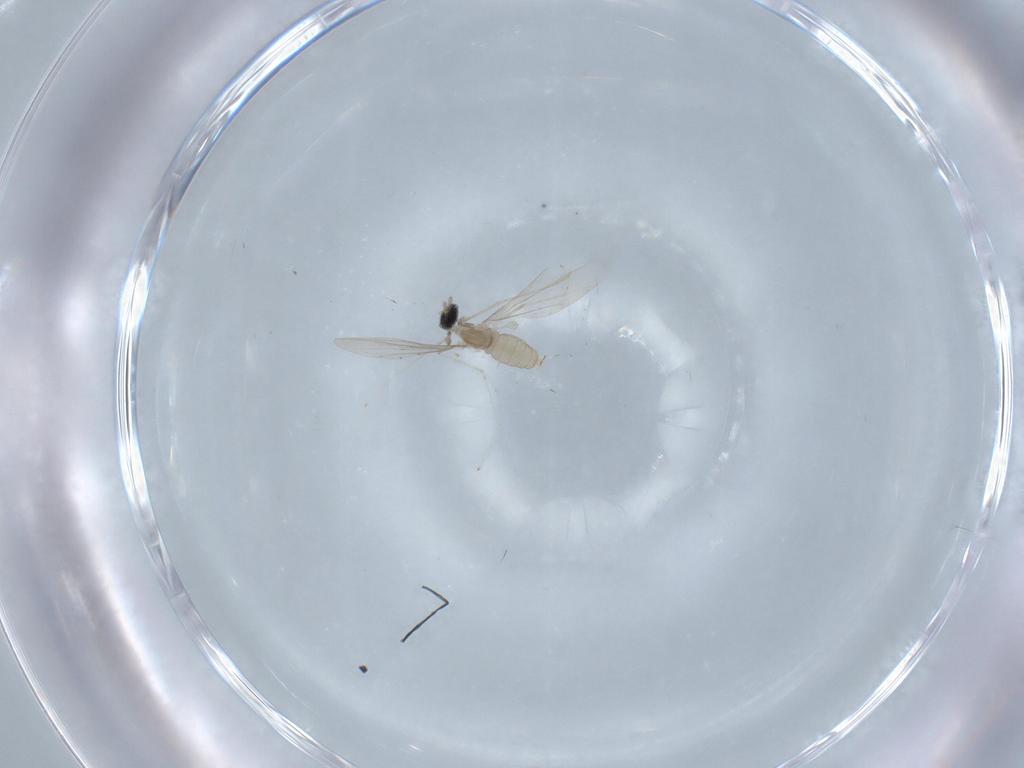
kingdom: Animalia
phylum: Arthropoda
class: Insecta
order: Diptera
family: Cecidomyiidae
